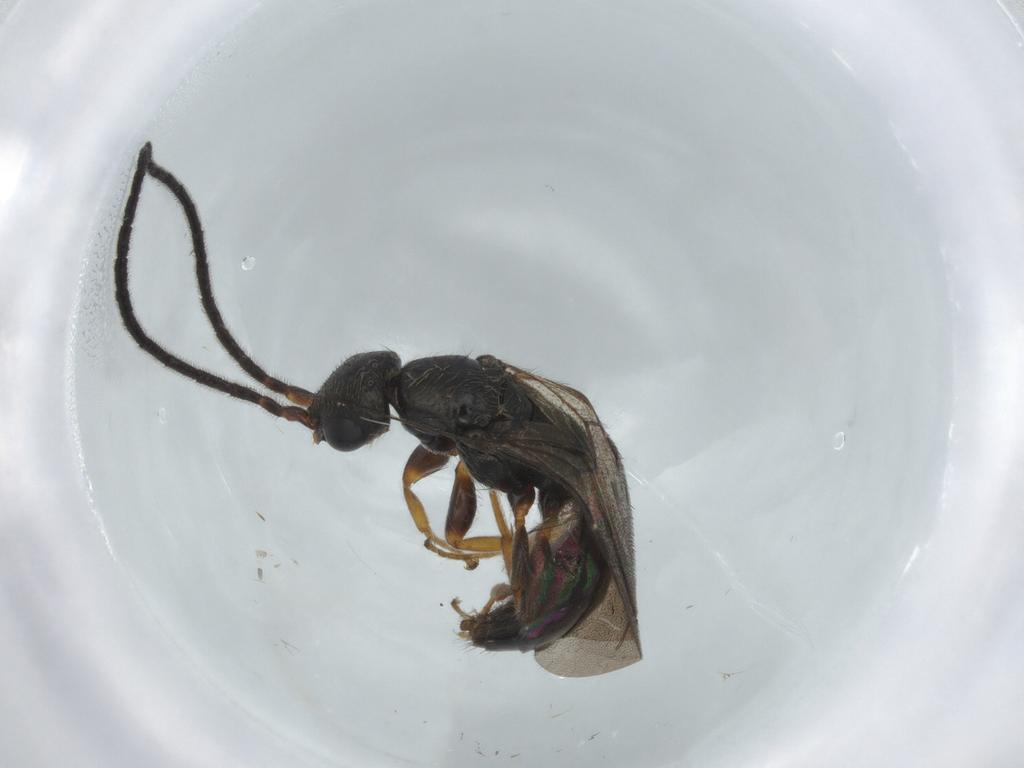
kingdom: Animalia
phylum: Arthropoda
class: Insecta
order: Hymenoptera
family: Bethylidae
